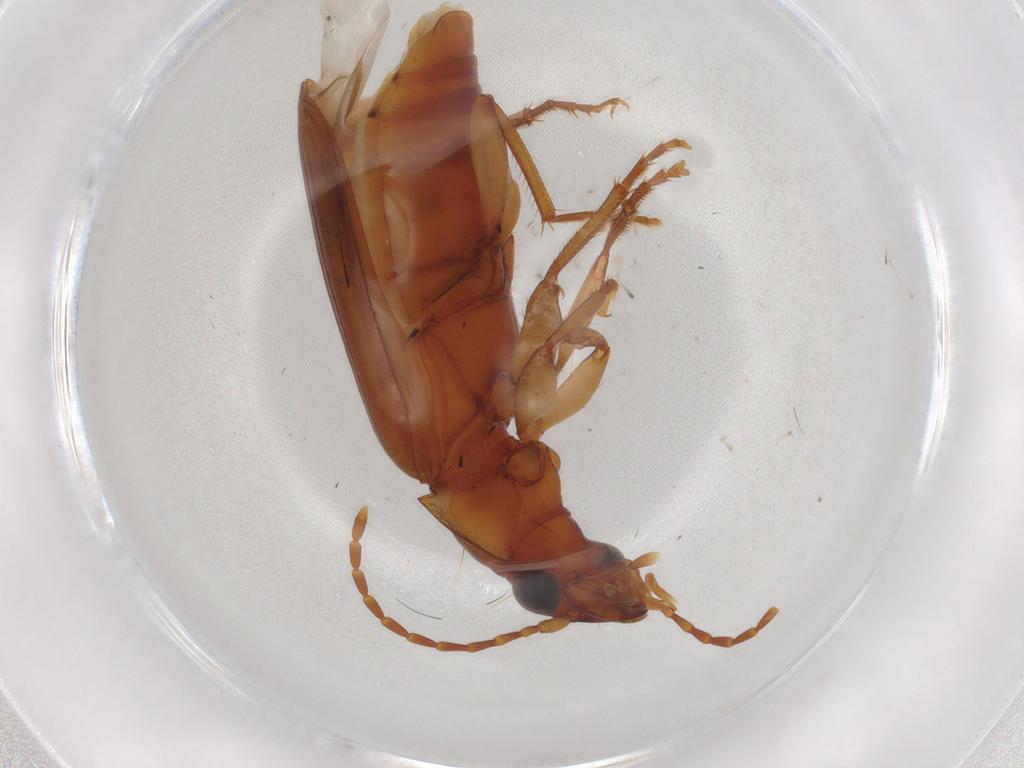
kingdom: Animalia
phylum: Arthropoda
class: Insecta
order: Coleoptera
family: Carabidae
